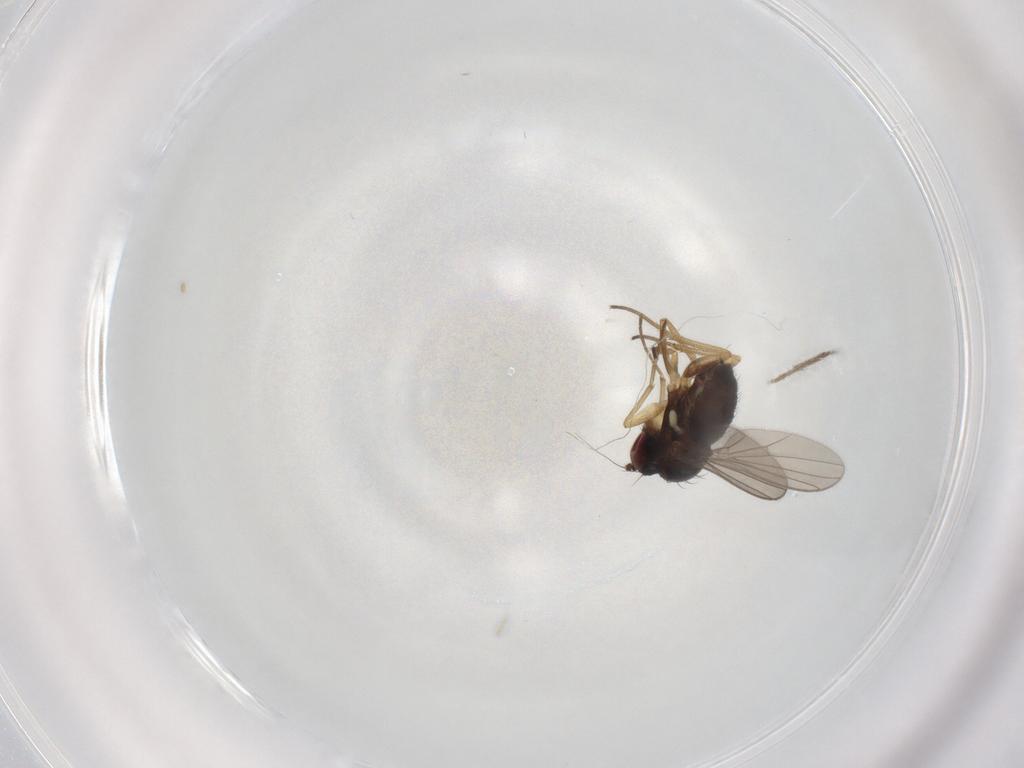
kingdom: Animalia
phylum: Arthropoda
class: Insecta
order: Diptera
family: Dolichopodidae
